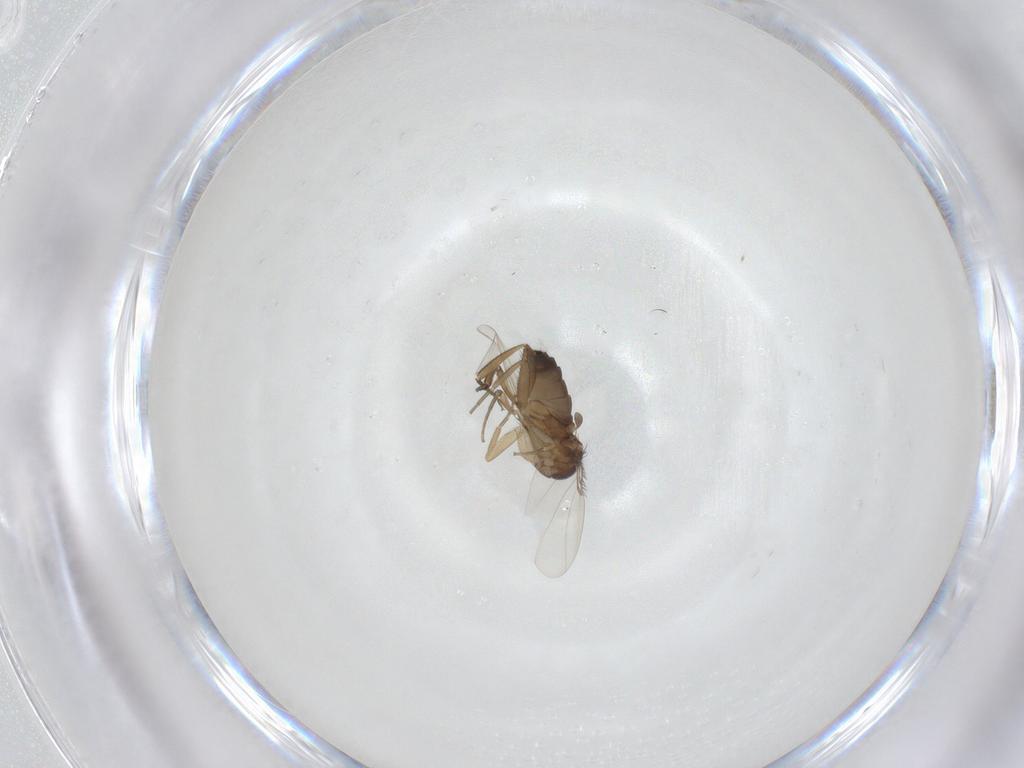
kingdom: Animalia
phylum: Arthropoda
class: Insecta
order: Diptera
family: Phoridae
